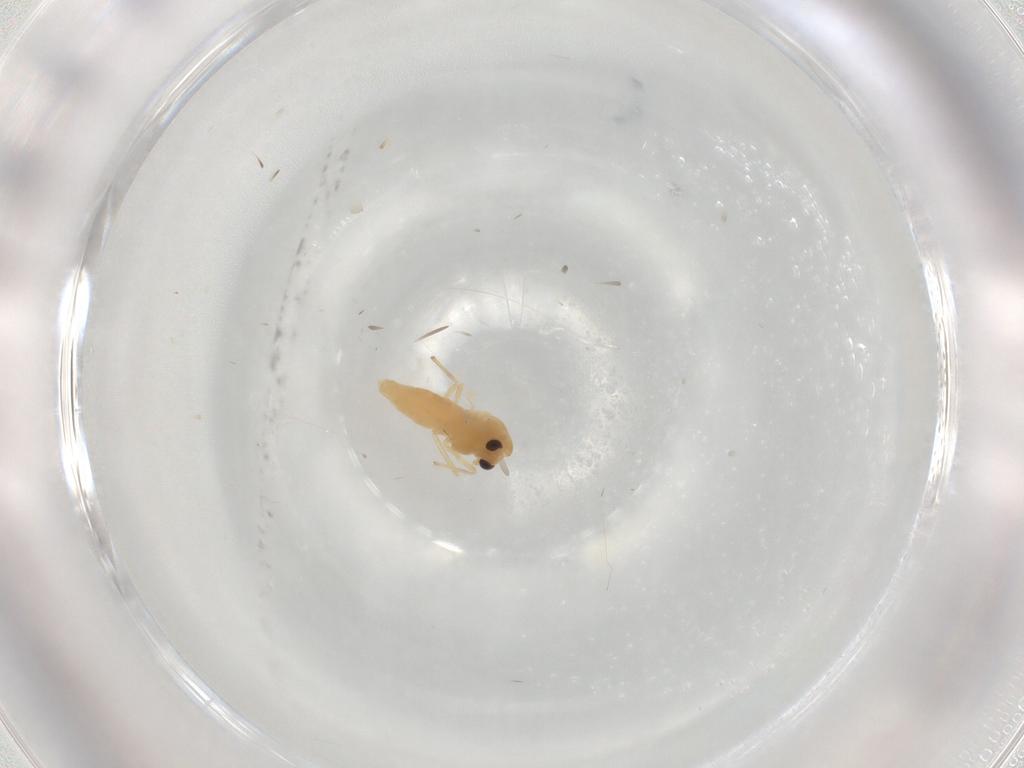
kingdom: Animalia
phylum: Arthropoda
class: Insecta
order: Diptera
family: Chironomidae
